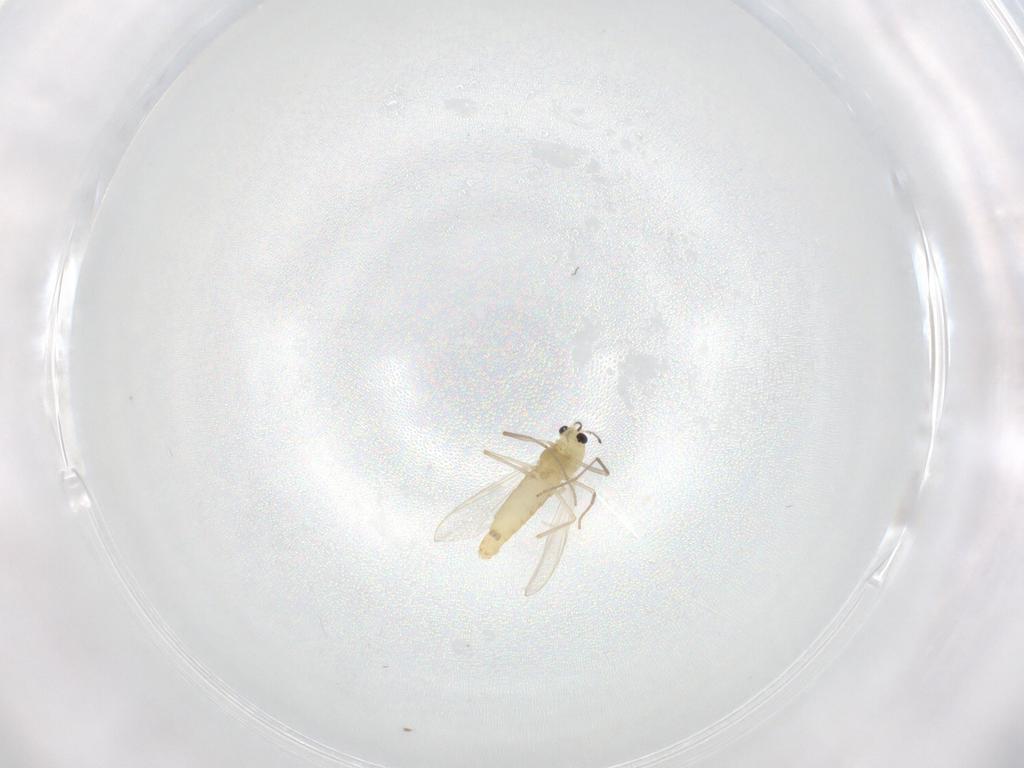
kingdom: Animalia
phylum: Arthropoda
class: Insecta
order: Diptera
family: Chironomidae
